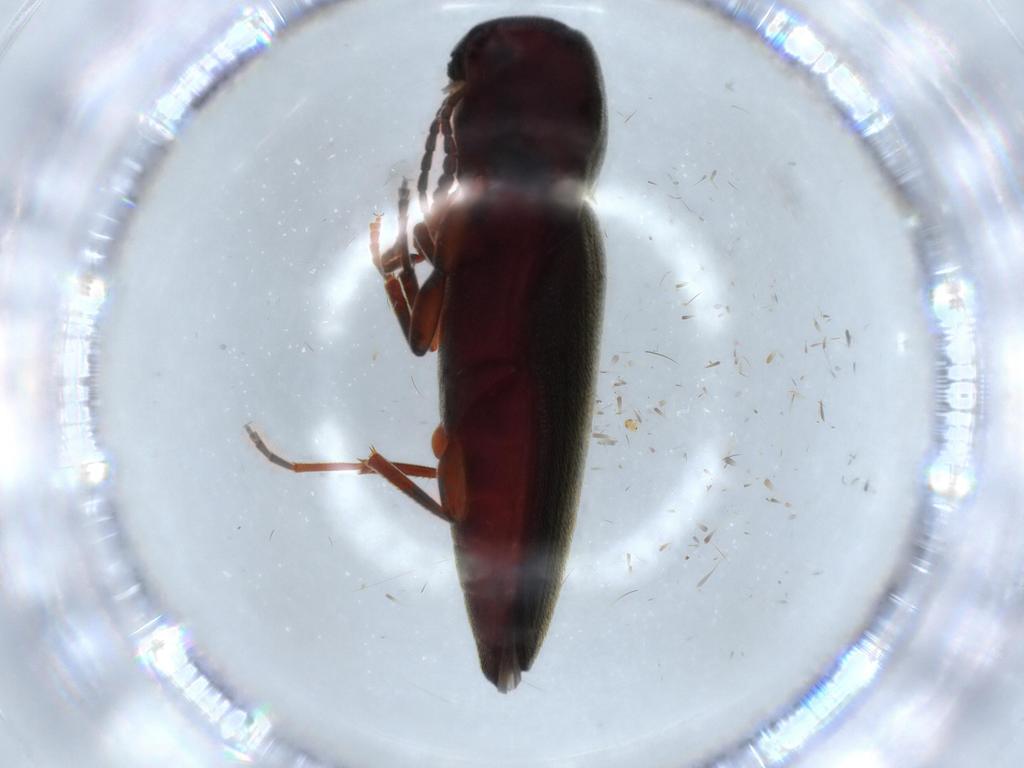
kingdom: Animalia
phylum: Arthropoda
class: Insecta
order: Coleoptera
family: Eucnemidae
